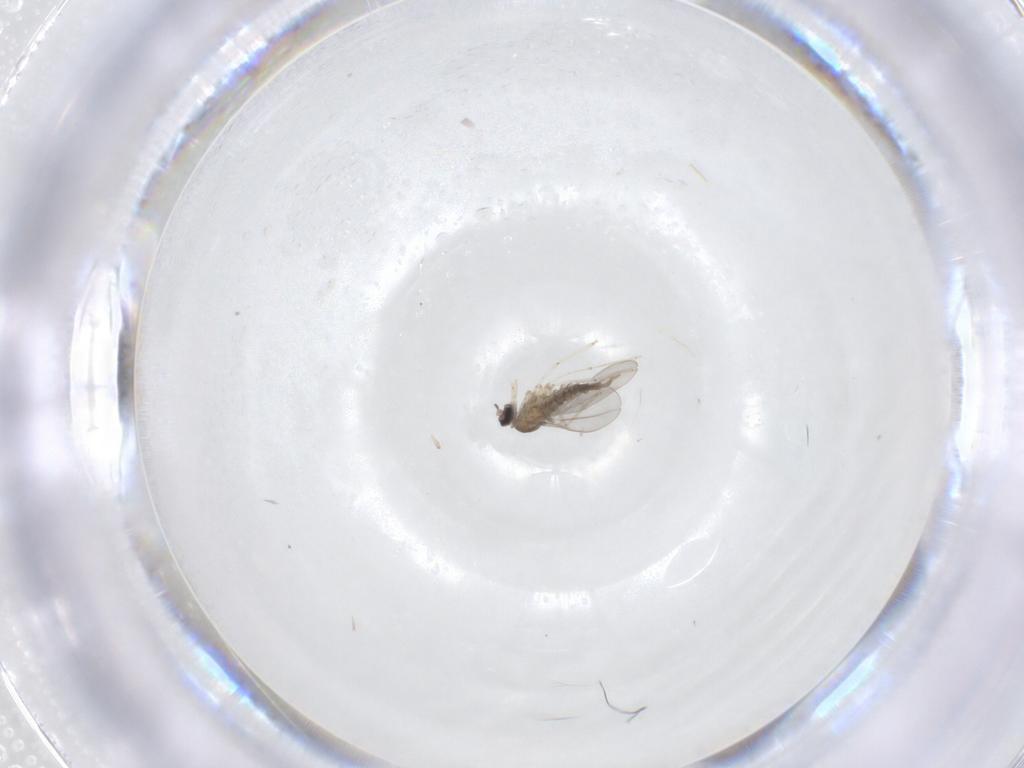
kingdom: Animalia
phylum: Arthropoda
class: Insecta
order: Diptera
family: Cecidomyiidae
